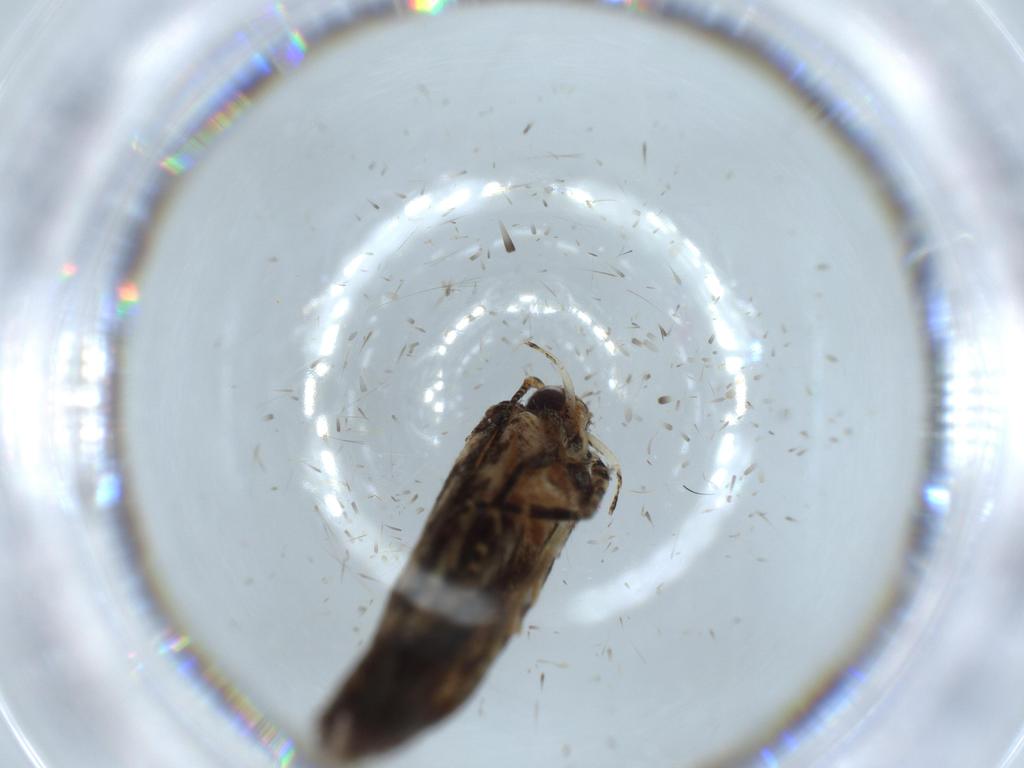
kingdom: Animalia
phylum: Arthropoda
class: Insecta
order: Lepidoptera
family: Gelechiidae
